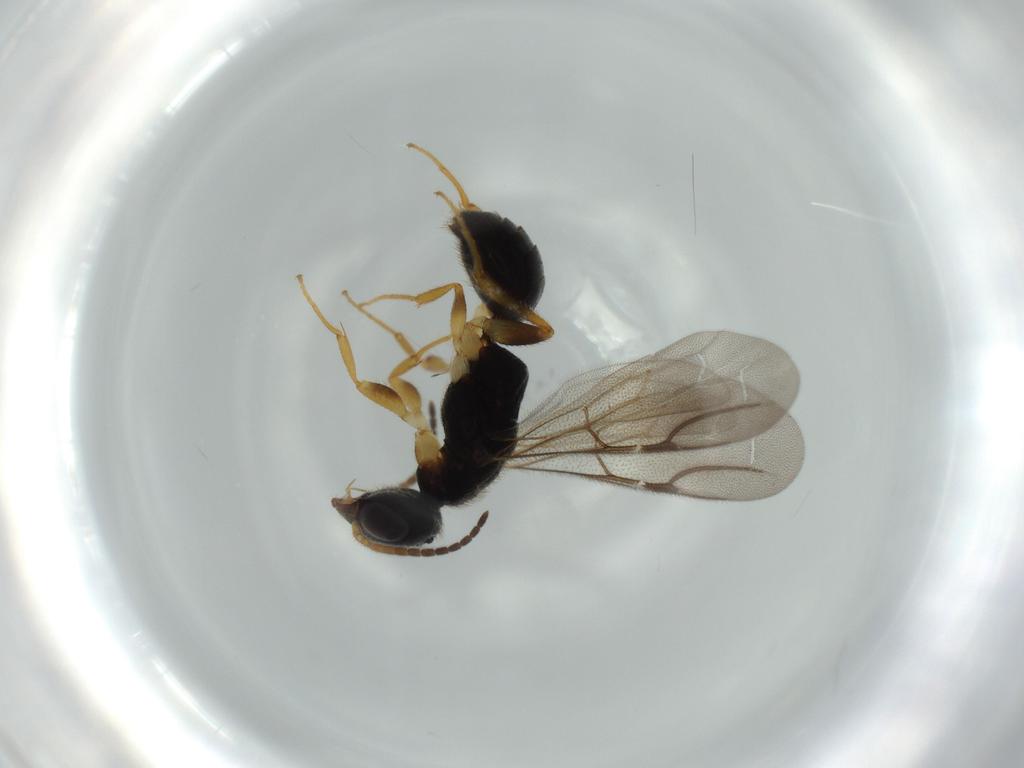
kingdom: Animalia
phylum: Arthropoda
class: Insecta
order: Hymenoptera
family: Bethylidae
